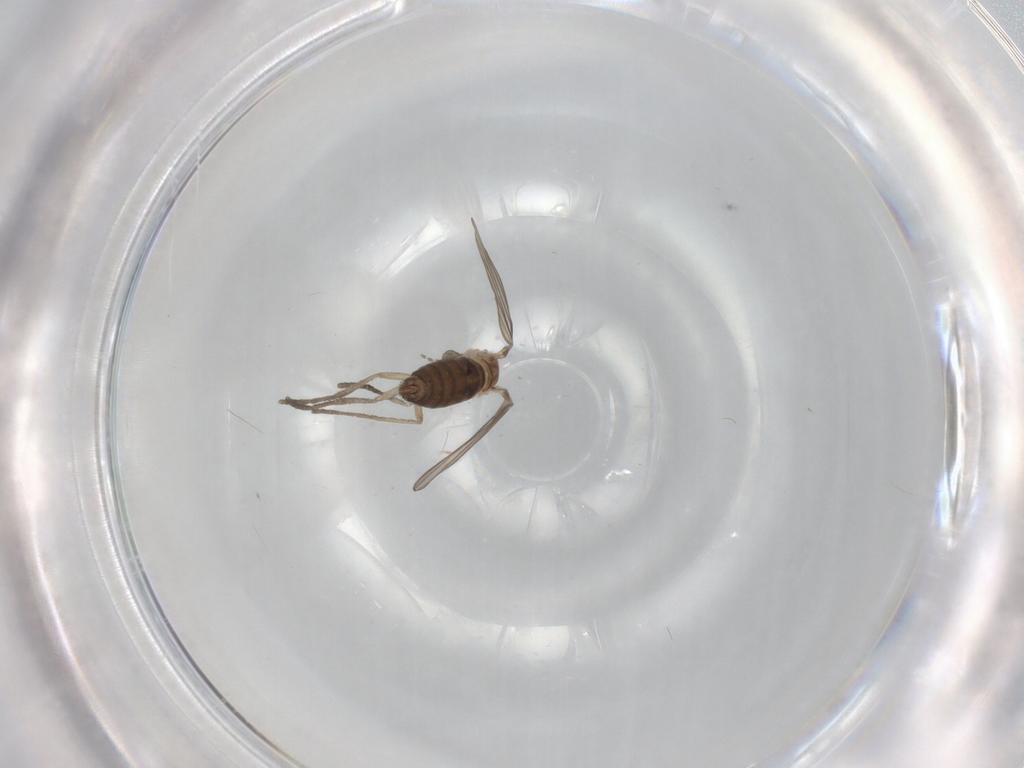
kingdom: Animalia
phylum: Arthropoda
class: Insecta
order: Diptera
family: Psychodidae
